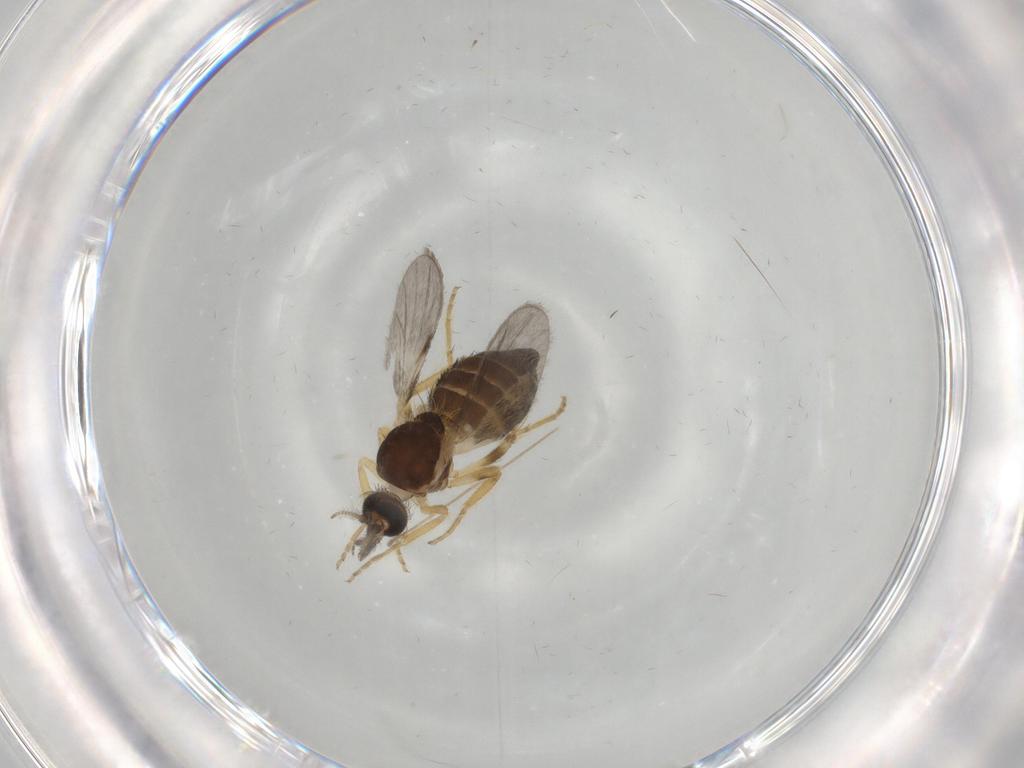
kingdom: Animalia
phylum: Arthropoda
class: Insecta
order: Diptera
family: Ceratopogonidae
